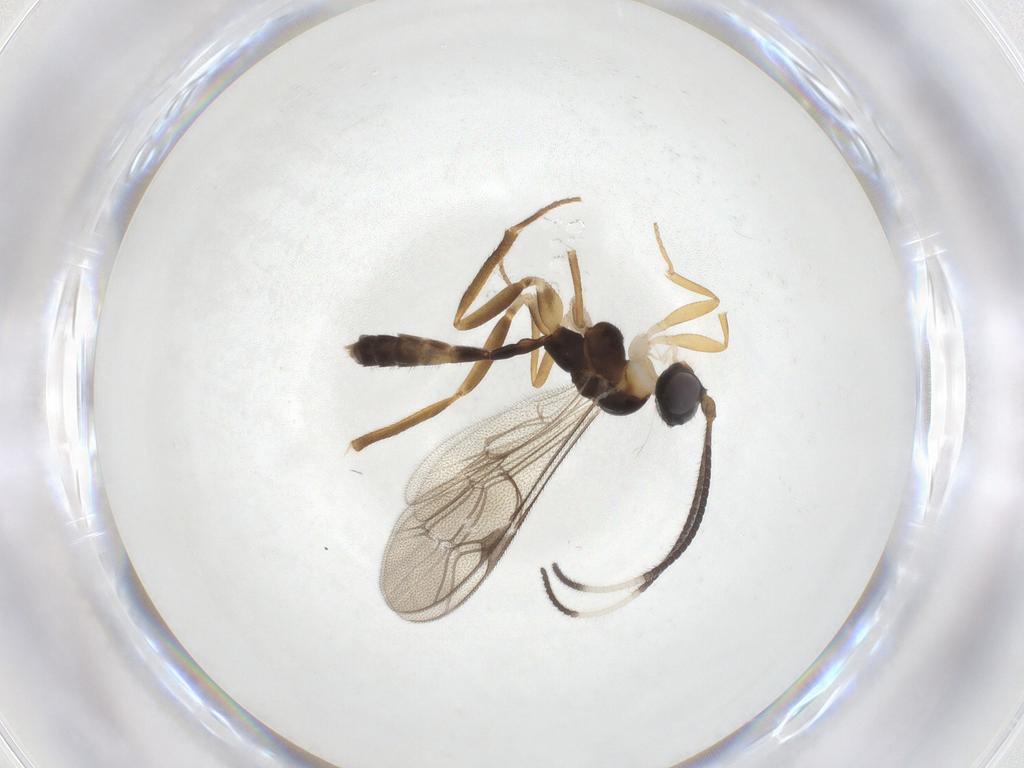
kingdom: Animalia
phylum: Arthropoda
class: Insecta
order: Hymenoptera
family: Ichneumonidae
